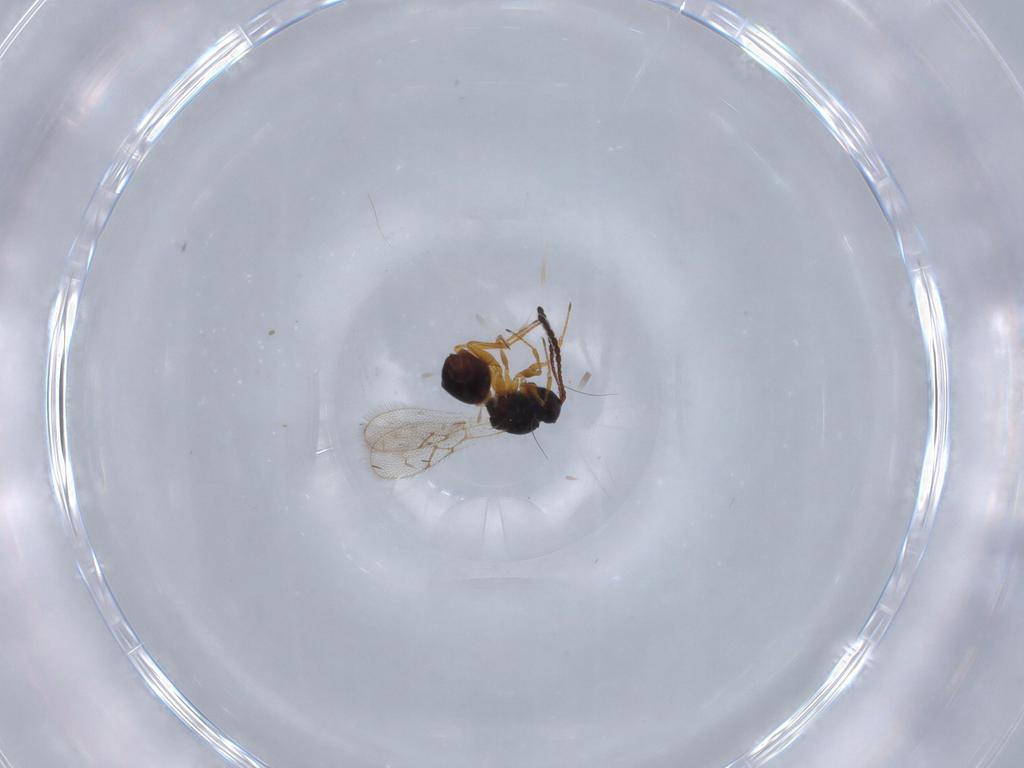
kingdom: Animalia
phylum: Arthropoda
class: Insecta
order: Hymenoptera
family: Figitidae
